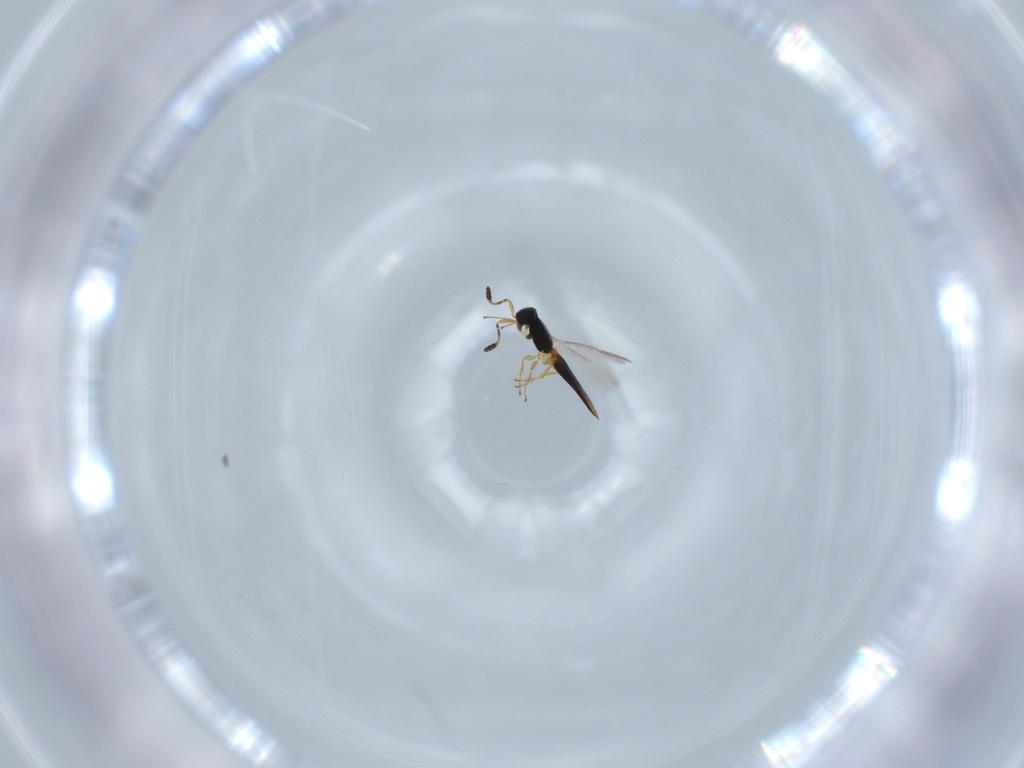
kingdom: Animalia
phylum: Arthropoda
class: Insecta
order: Hymenoptera
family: Scelionidae
